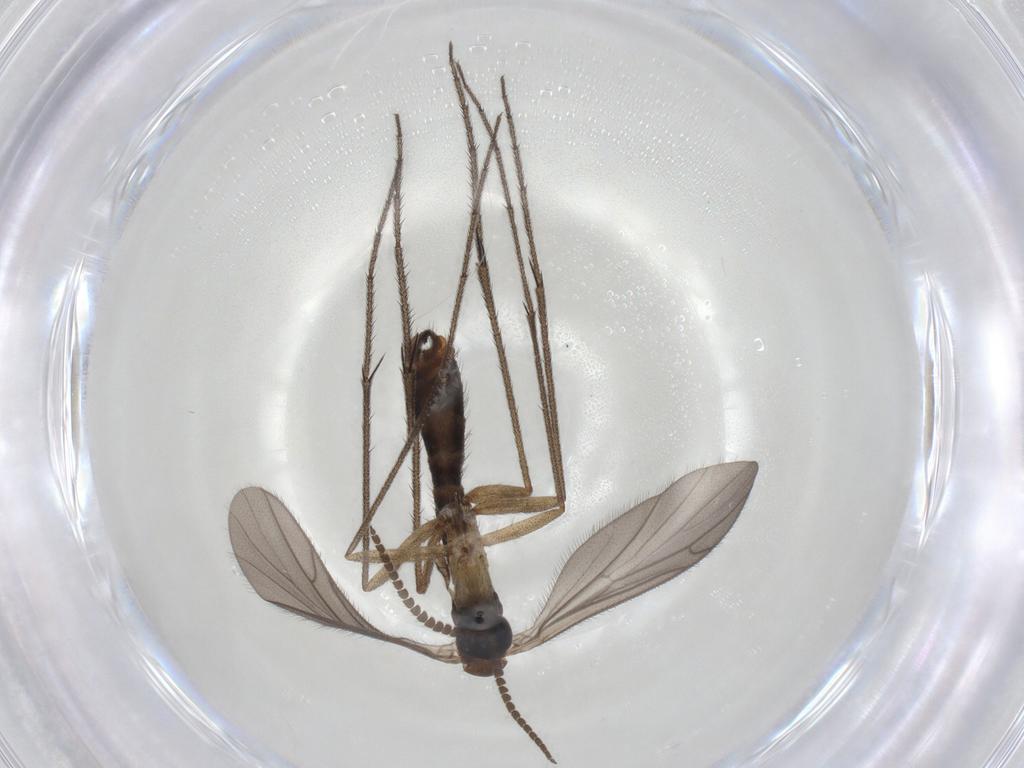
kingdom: Animalia
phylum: Arthropoda
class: Insecta
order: Diptera
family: Ditomyiidae
